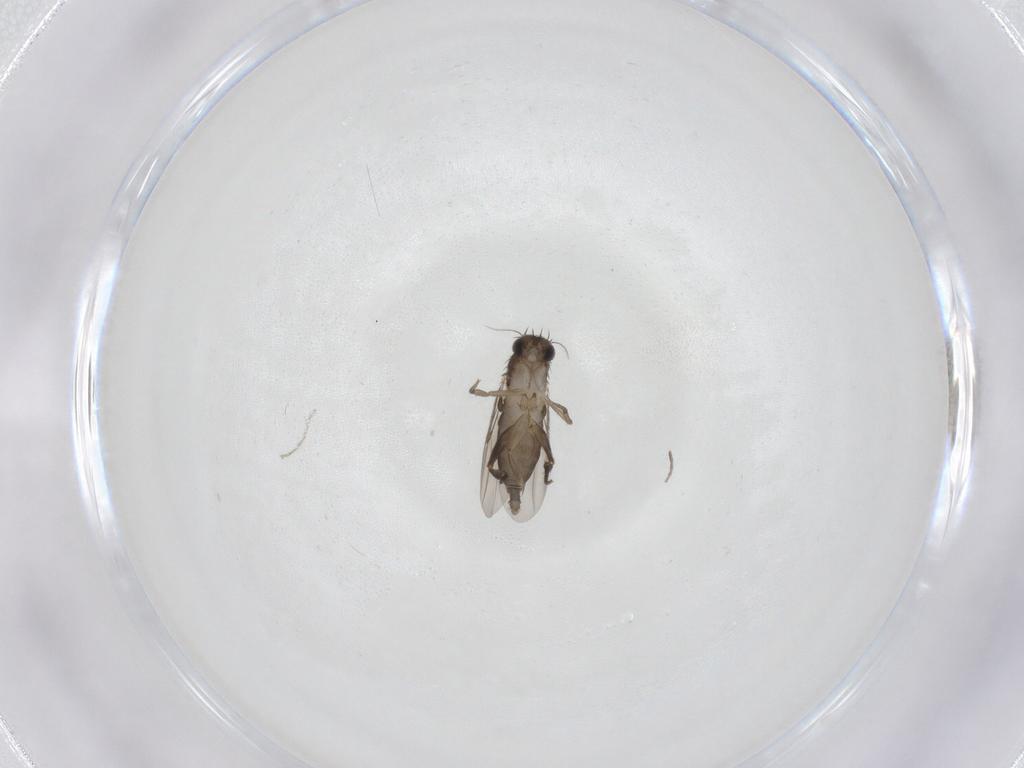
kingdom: Animalia
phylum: Arthropoda
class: Insecta
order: Diptera
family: Phoridae
